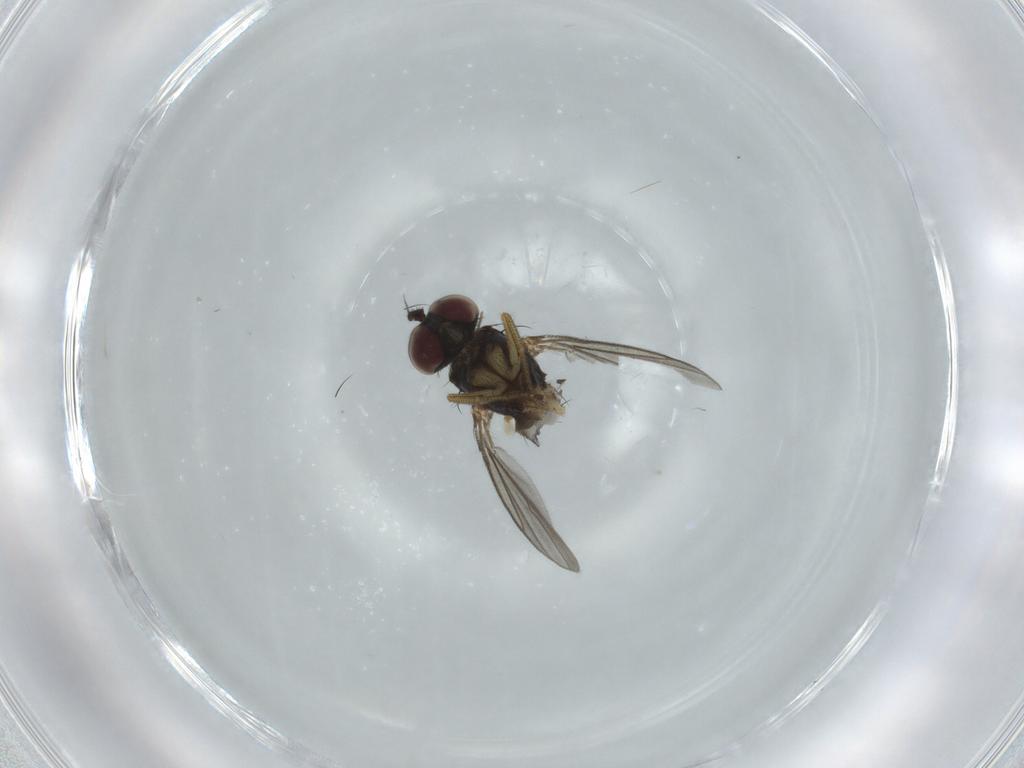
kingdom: Animalia
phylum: Arthropoda
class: Insecta
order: Diptera
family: Dolichopodidae
